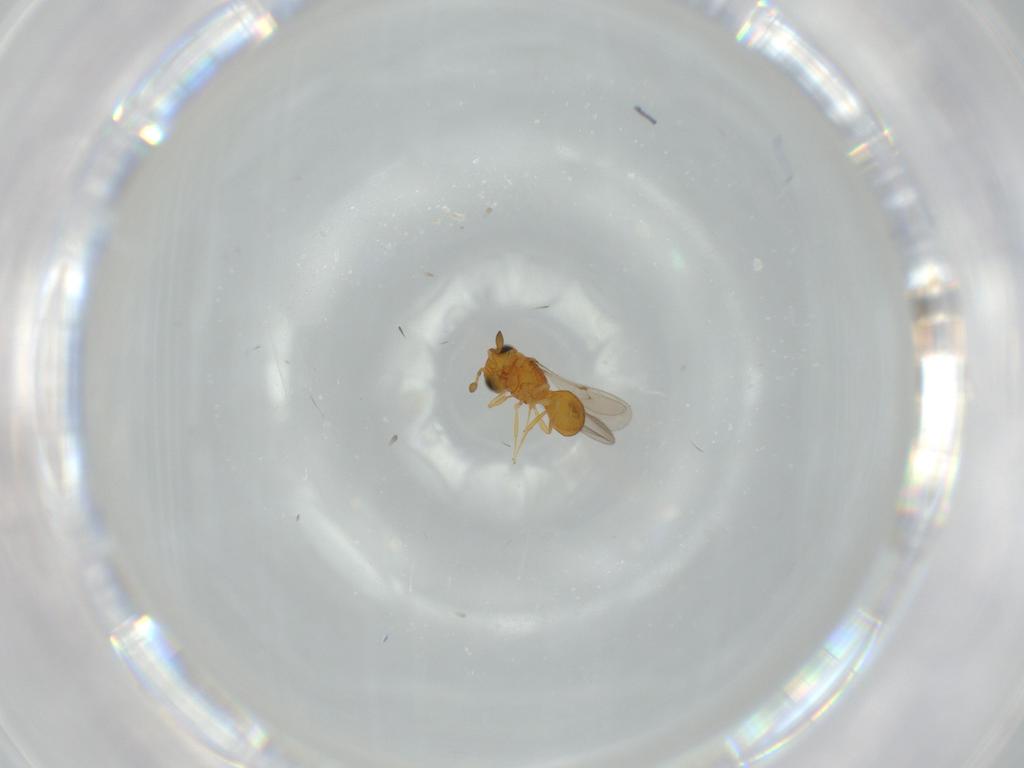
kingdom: Animalia
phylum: Arthropoda
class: Insecta
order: Hymenoptera
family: Scelionidae
